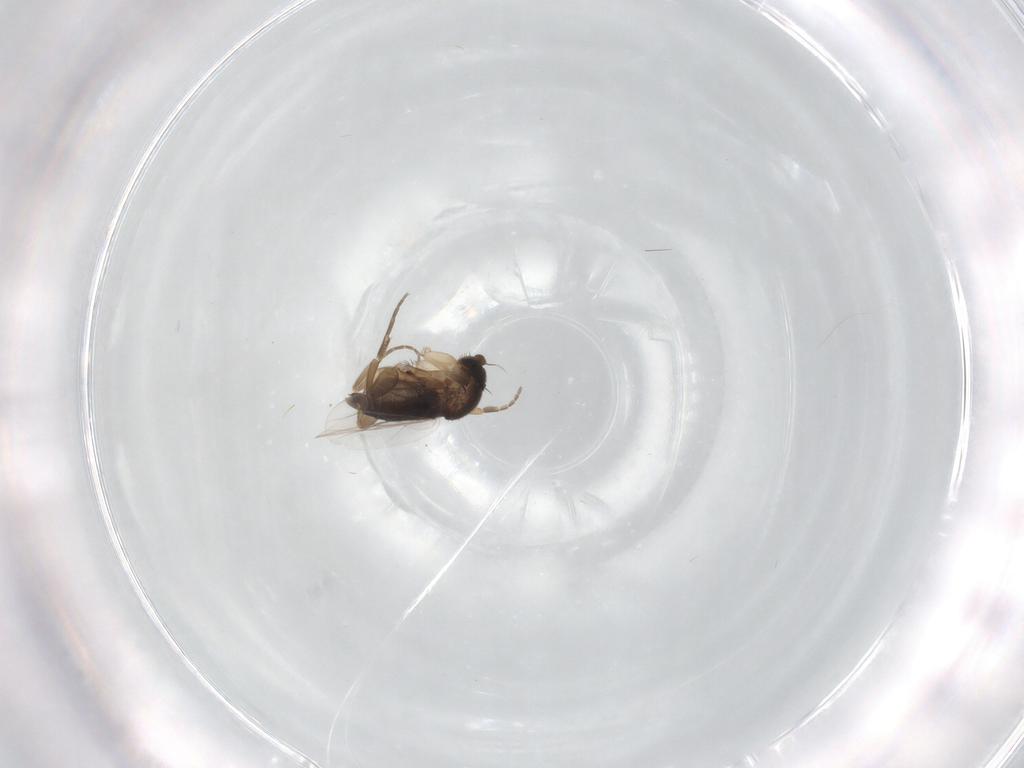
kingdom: Animalia
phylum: Arthropoda
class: Insecta
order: Diptera
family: Phoridae
